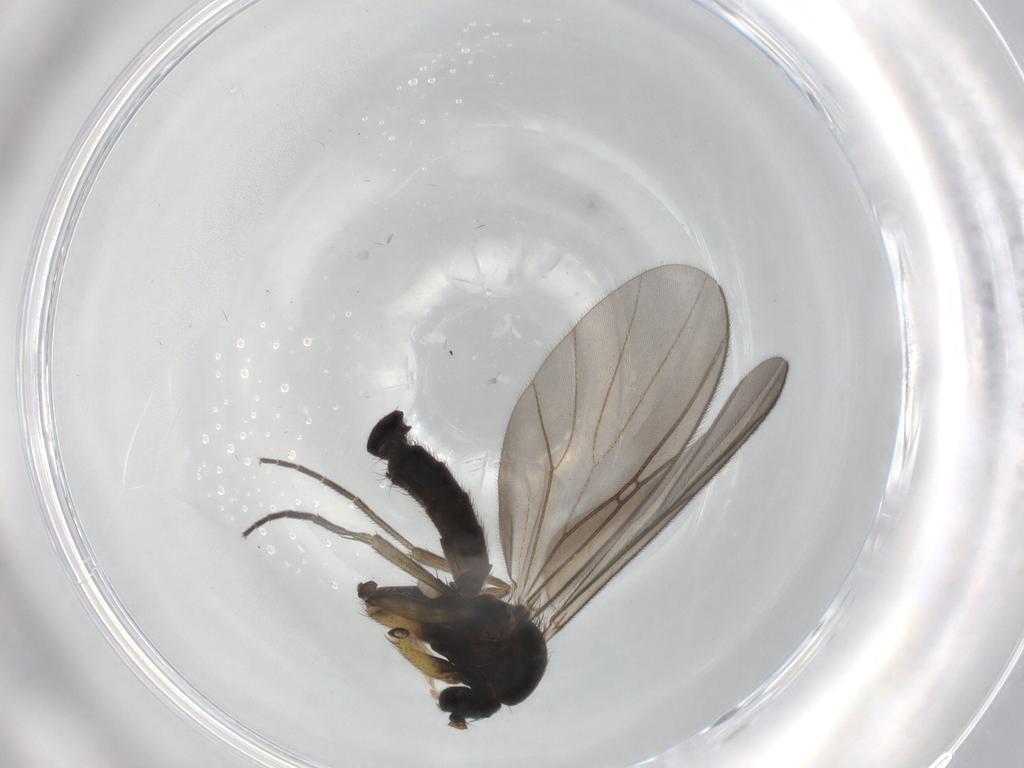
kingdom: Animalia
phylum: Arthropoda
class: Insecta
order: Diptera
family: Mycetophilidae
